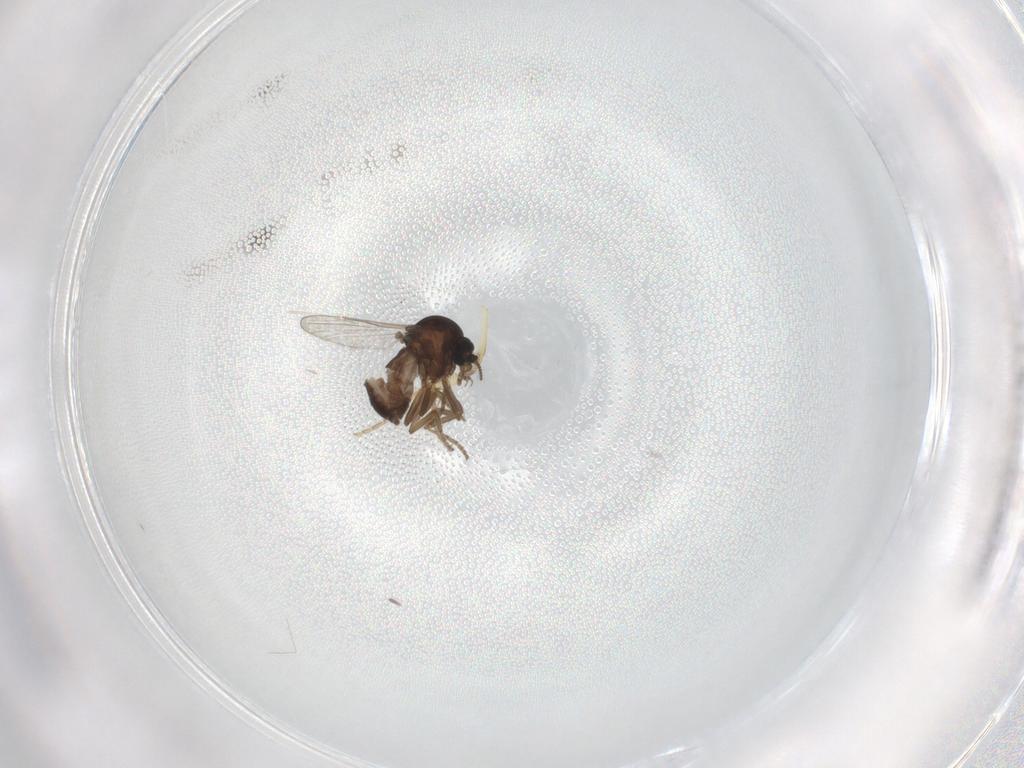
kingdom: Animalia
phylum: Arthropoda
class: Insecta
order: Diptera
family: Ceratopogonidae
